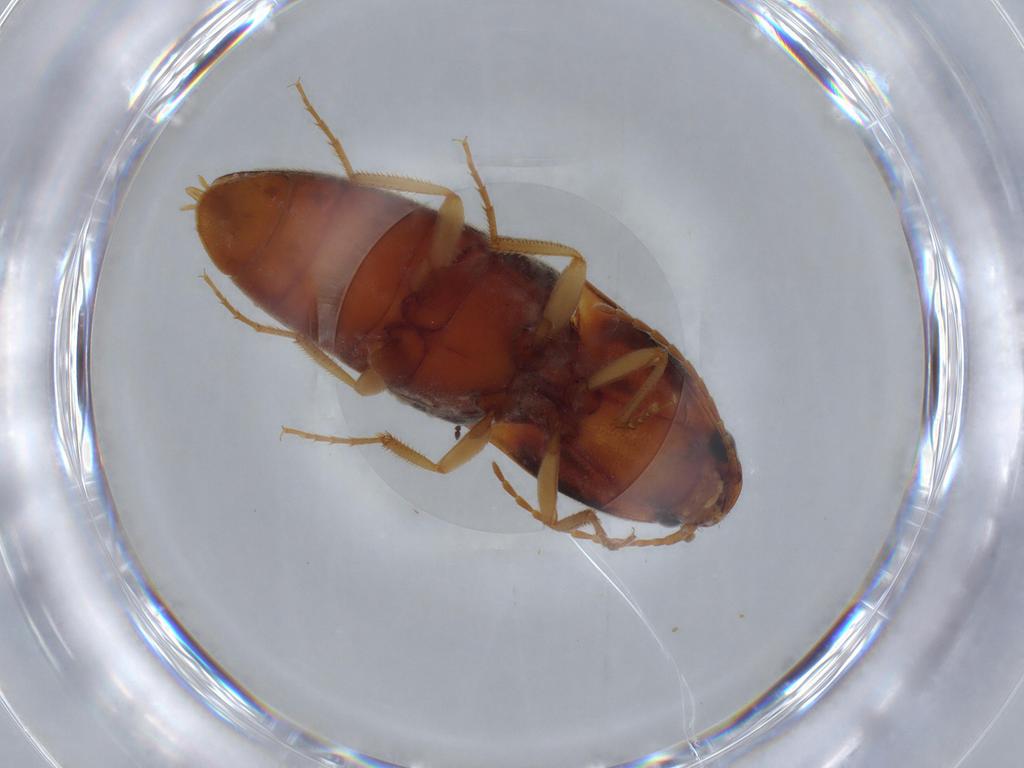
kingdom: Animalia
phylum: Arthropoda
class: Insecta
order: Coleoptera
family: Elateridae
